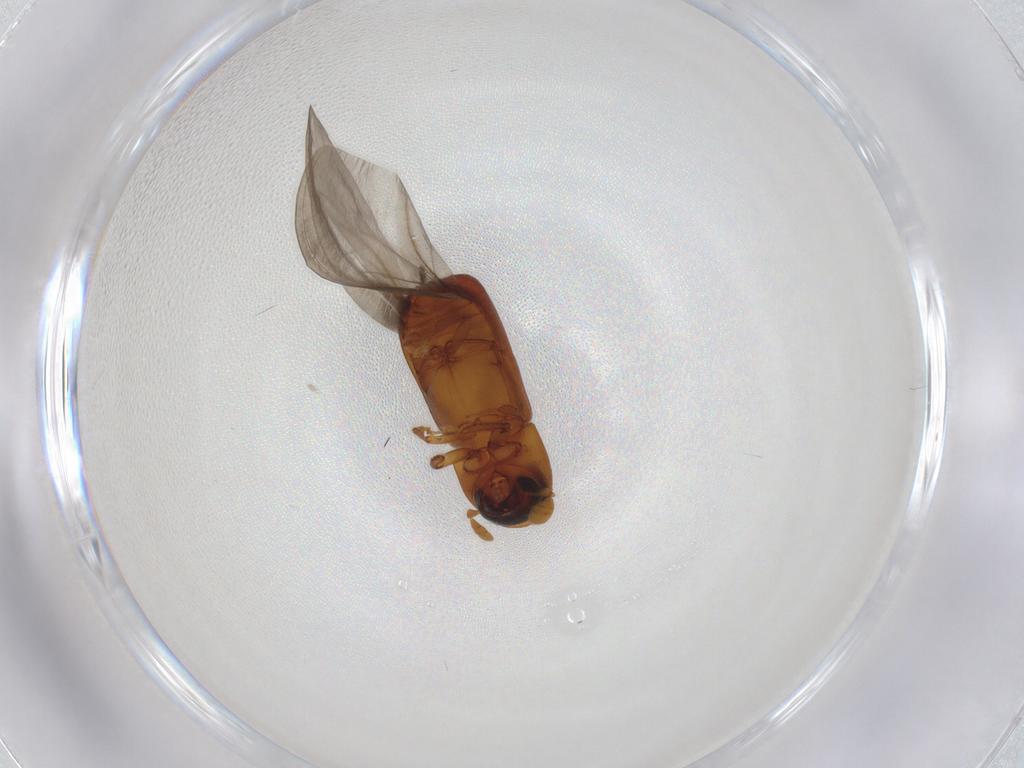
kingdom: Animalia
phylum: Arthropoda
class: Insecta
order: Coleoptera
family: Curculionidae
